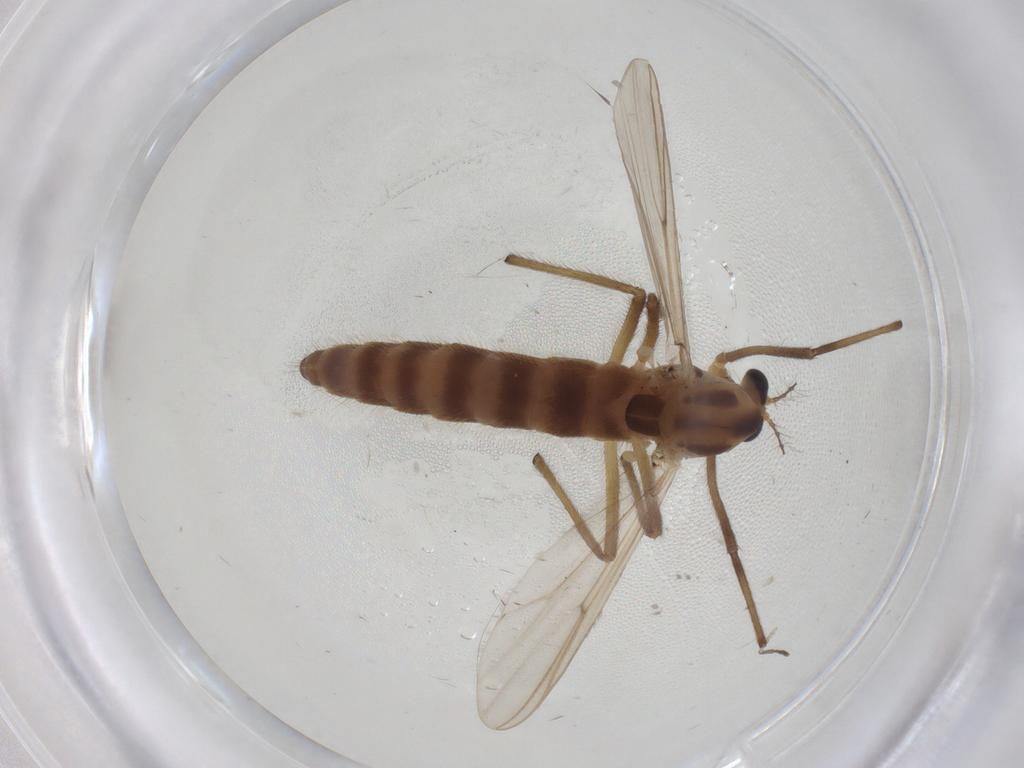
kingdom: Animalia
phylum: Arthropoda
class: Insecta
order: Diptera
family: Chironomidae
